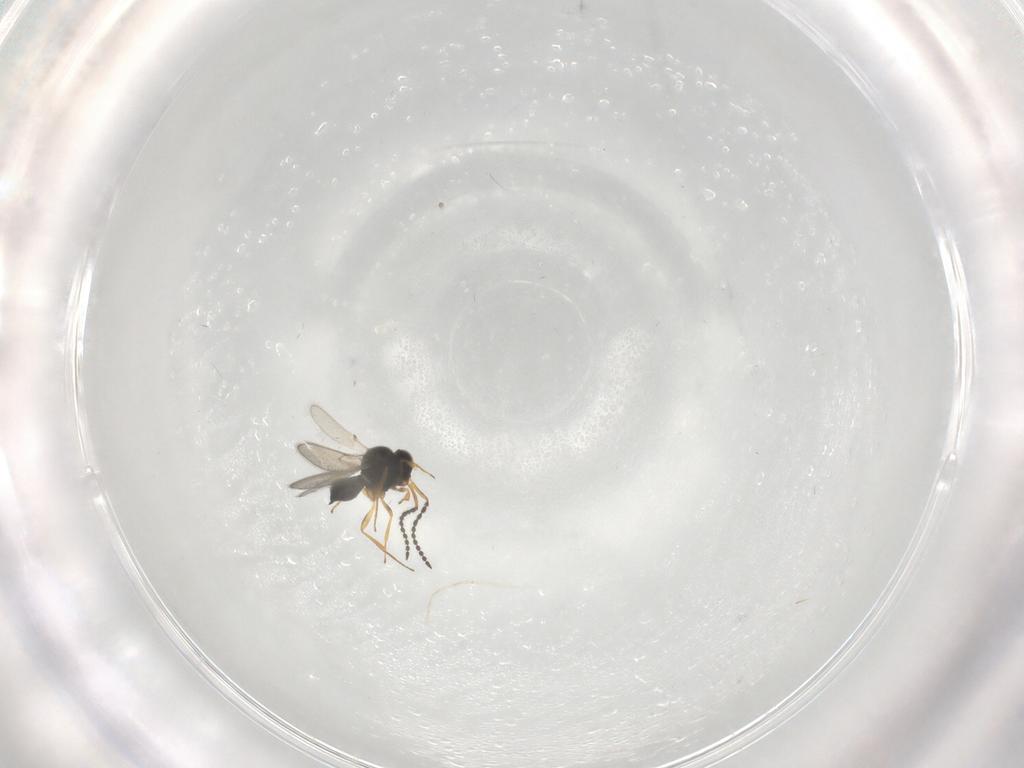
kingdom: Animalia
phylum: Arthropoda
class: Insecta
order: Hymenoptera
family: Scelionidae
